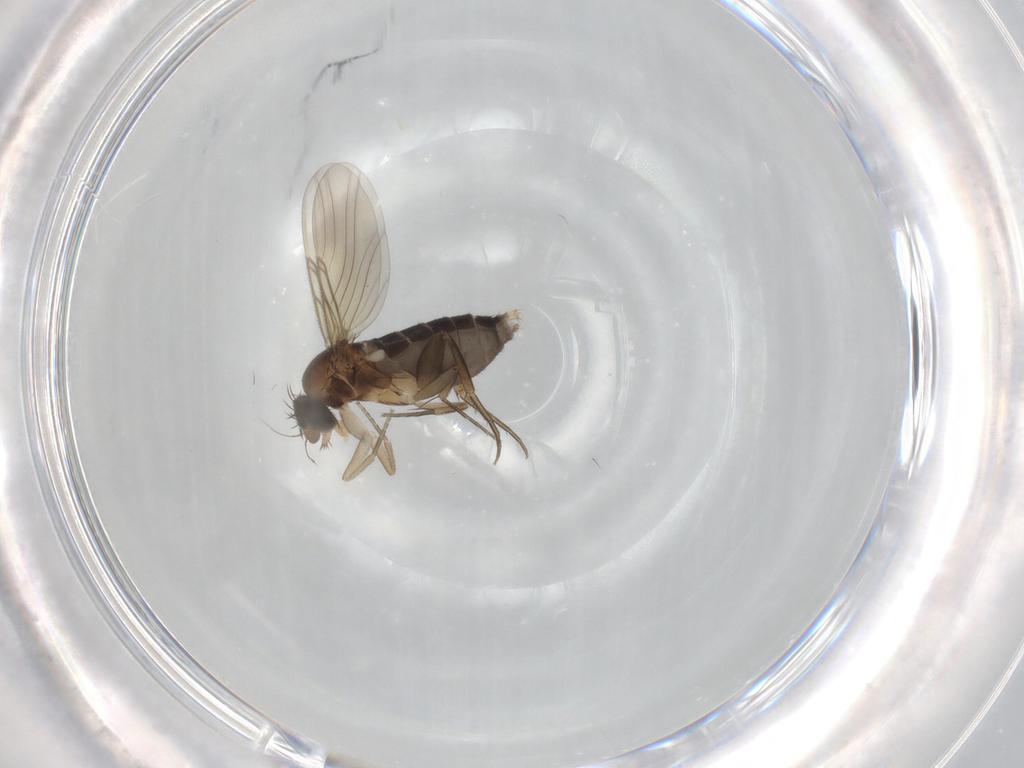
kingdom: Animalia
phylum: Arthropoda
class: Insecta
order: Diptera
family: Phoridae
